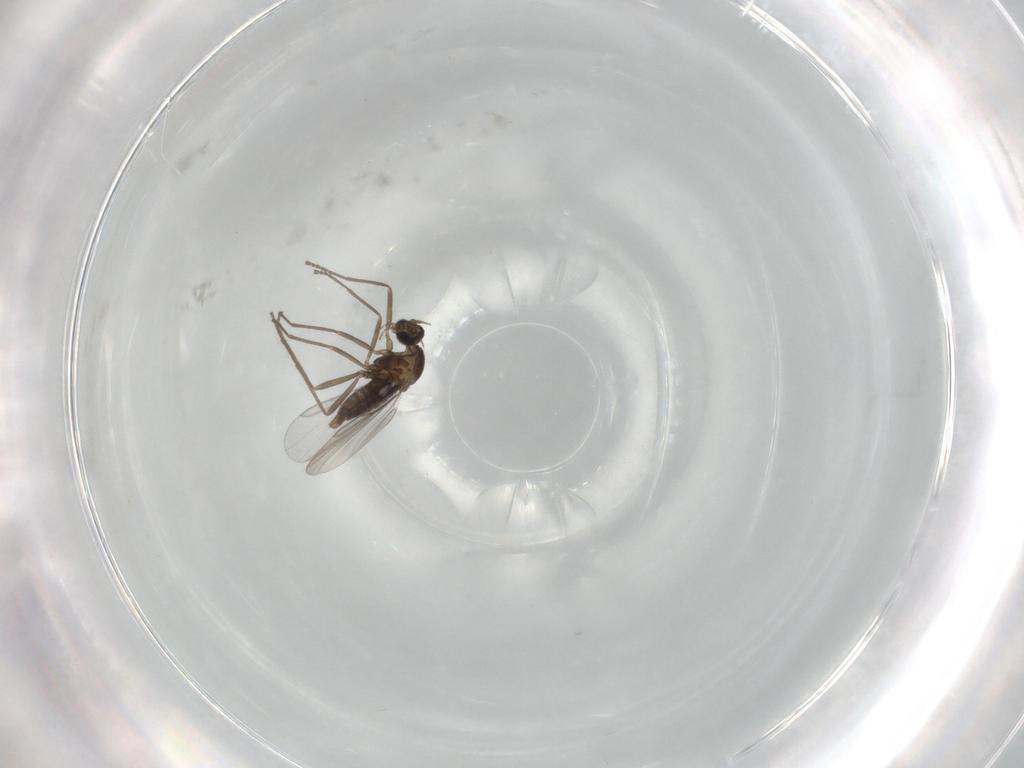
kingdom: Animalia
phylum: Arthropoda
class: Insecta
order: Diptera
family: Cecidomyiidae
